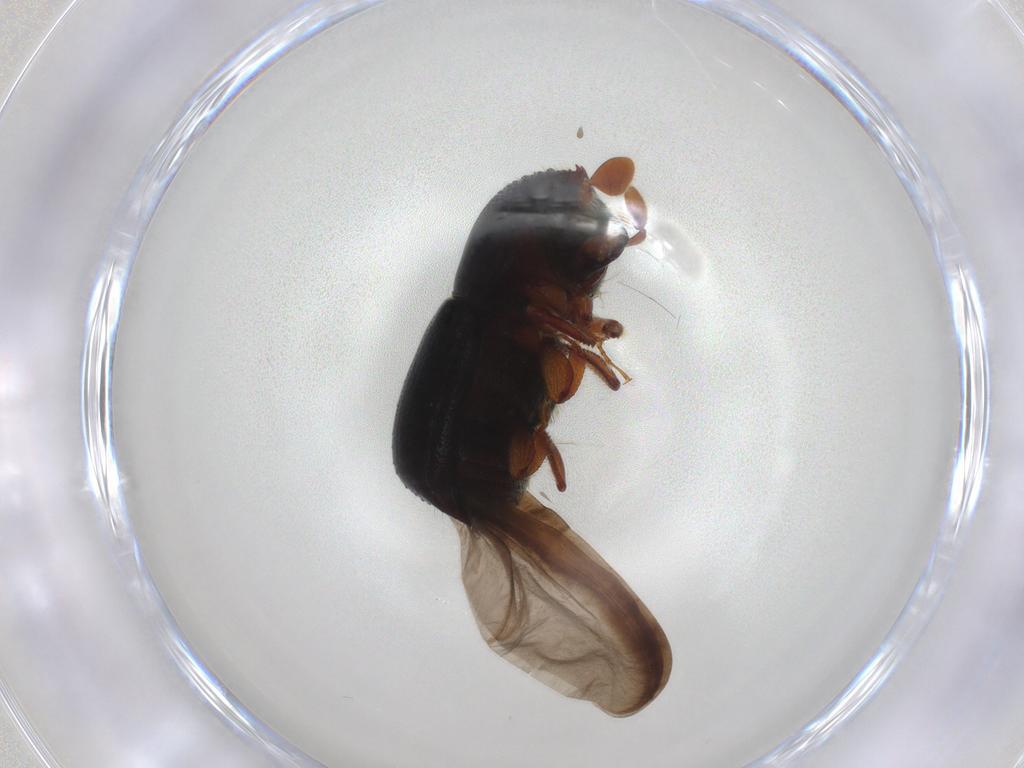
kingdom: Animalia
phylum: Arthropoda
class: Insecta
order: Coleoptera
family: Curculionidae
